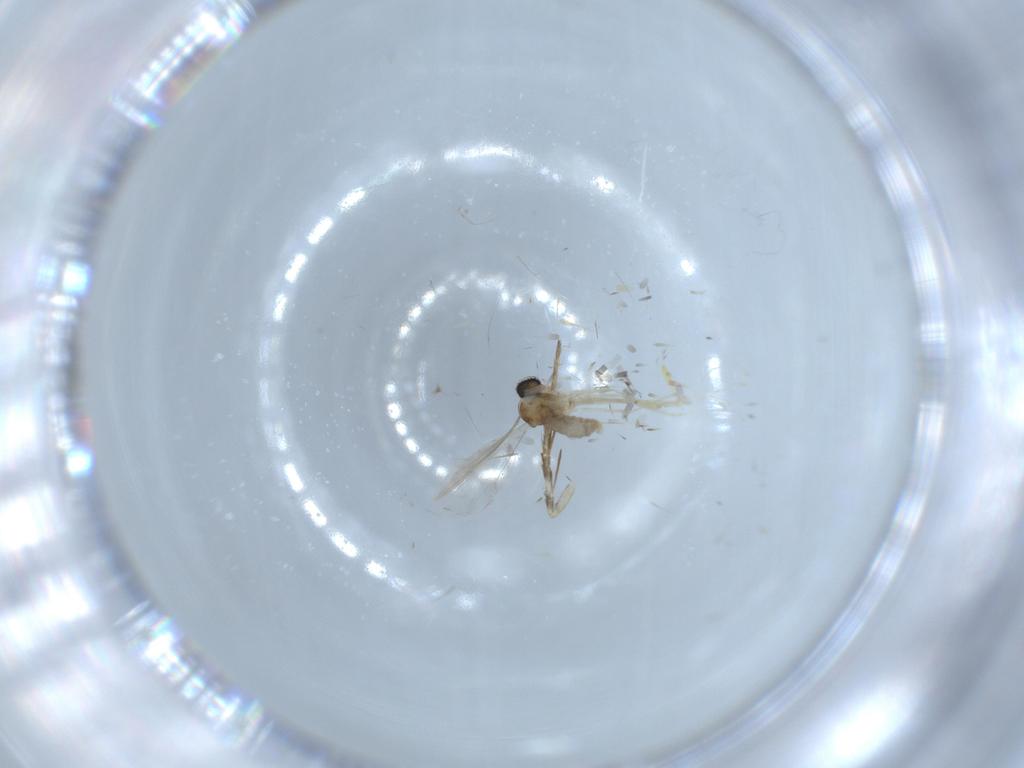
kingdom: Animalia
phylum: Arthropoda
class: Insecta
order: Diptera
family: Cecidomyiidae
